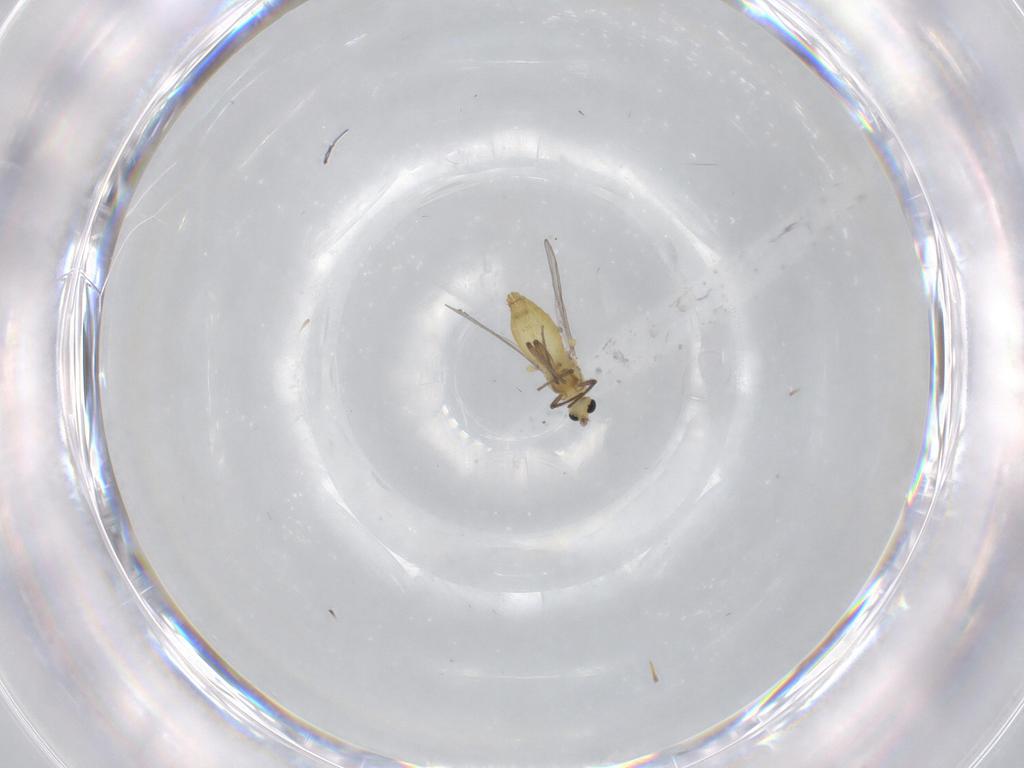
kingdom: Animalia
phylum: Arthropoda
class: Insecta
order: Diptera
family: Chironomidae
